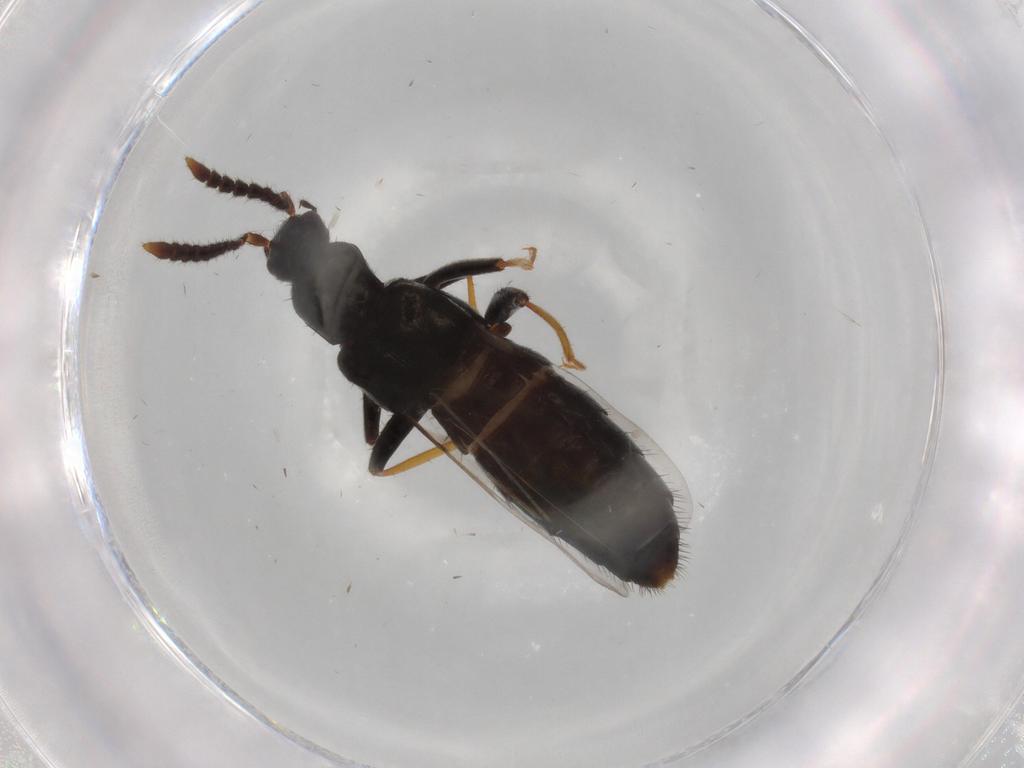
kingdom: Animalia
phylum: Arthropoda
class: Insecta
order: Coleoptera
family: Staphylinidae
